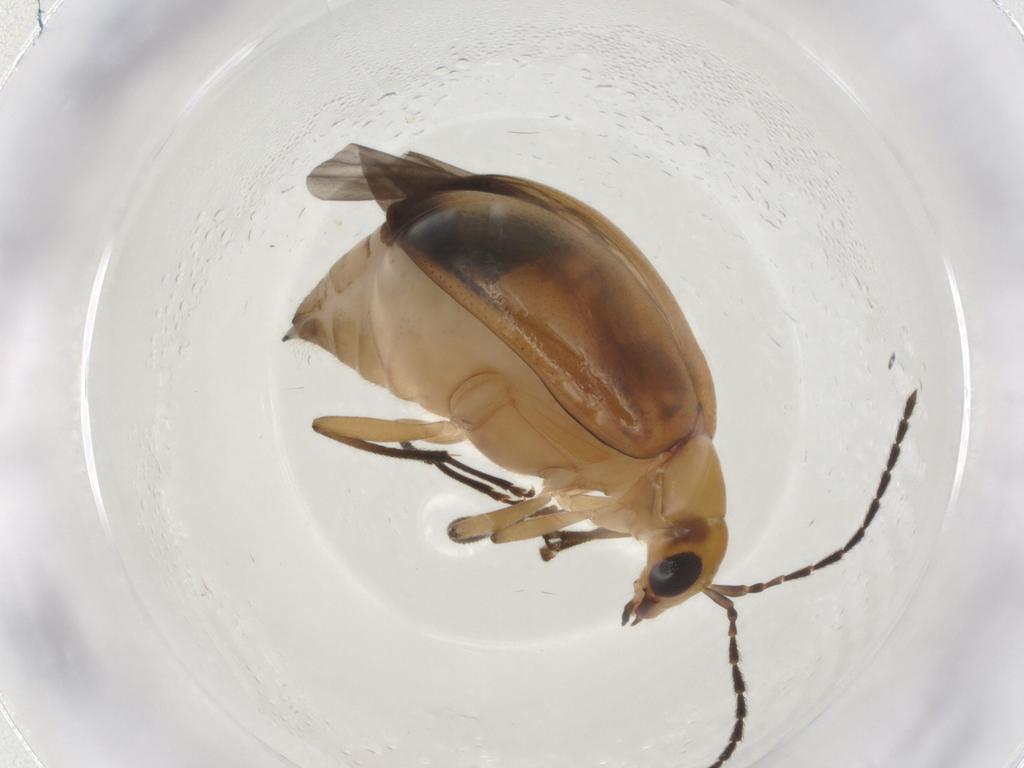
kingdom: Animalia
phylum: Arthropoda
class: Insecta
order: Coleoptera
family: Chrysomelidae
